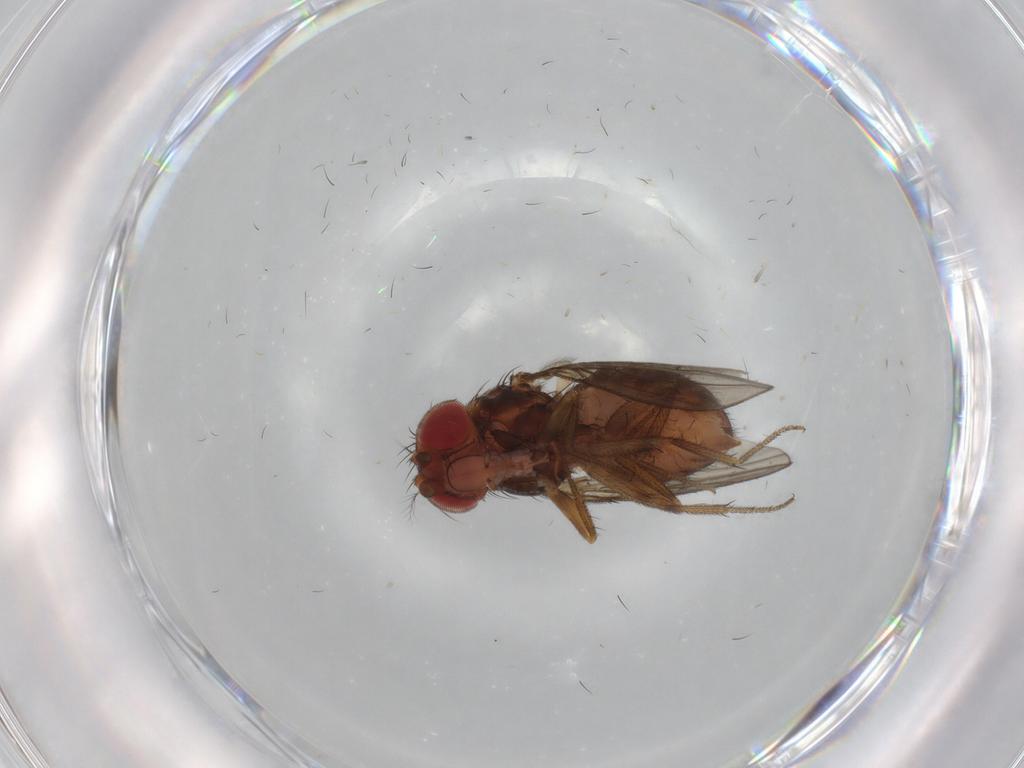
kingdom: Animalia
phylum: Arthropoda
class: Insecta
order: Diptera
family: Drosophilidae
